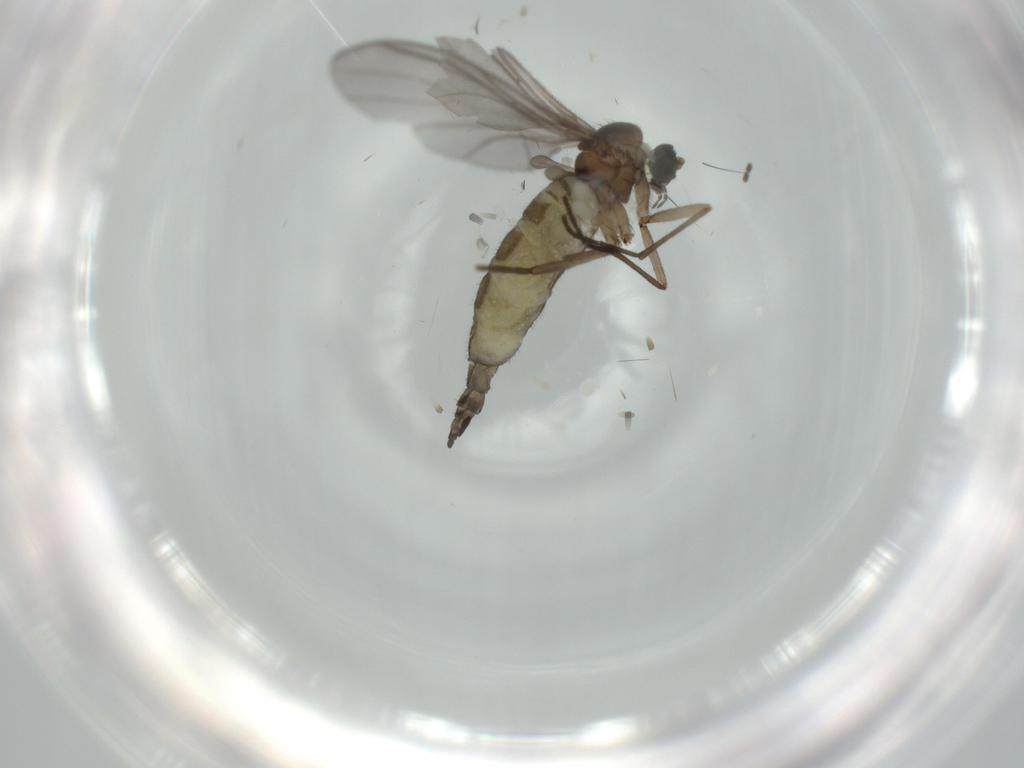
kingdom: Animalia
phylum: Arthropoda
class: Insecta
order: Diptera
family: Sciaridae
